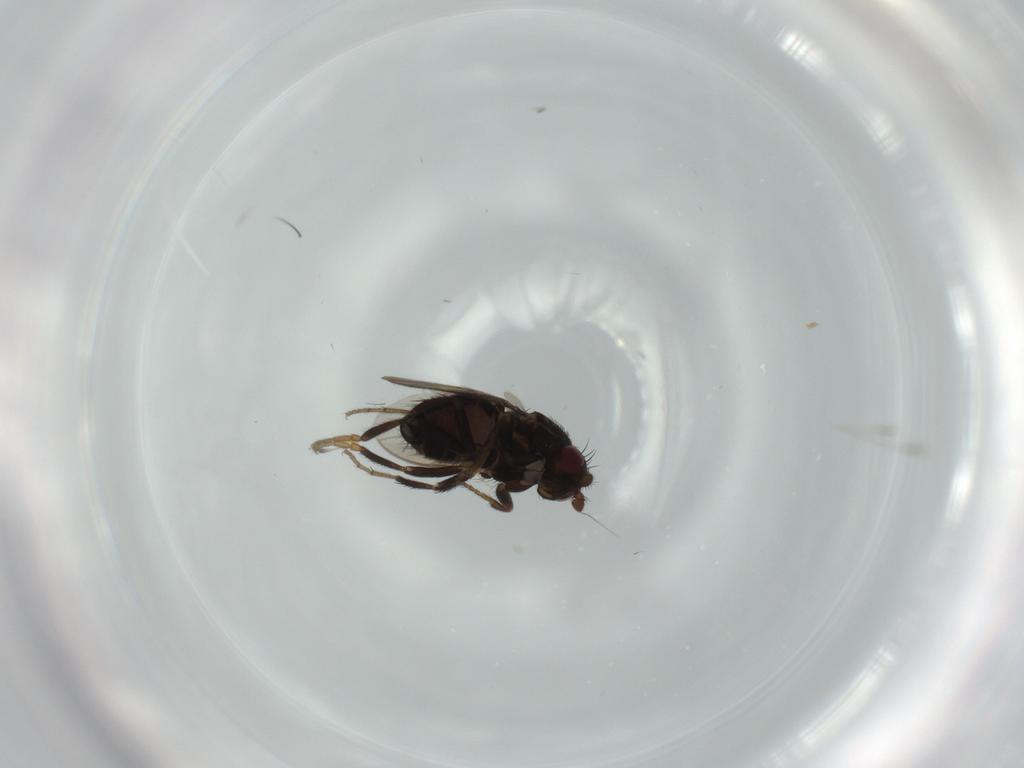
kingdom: Animalia
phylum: Arthropoda
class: Insecta
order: Diptera
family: Sphaeroceridae
